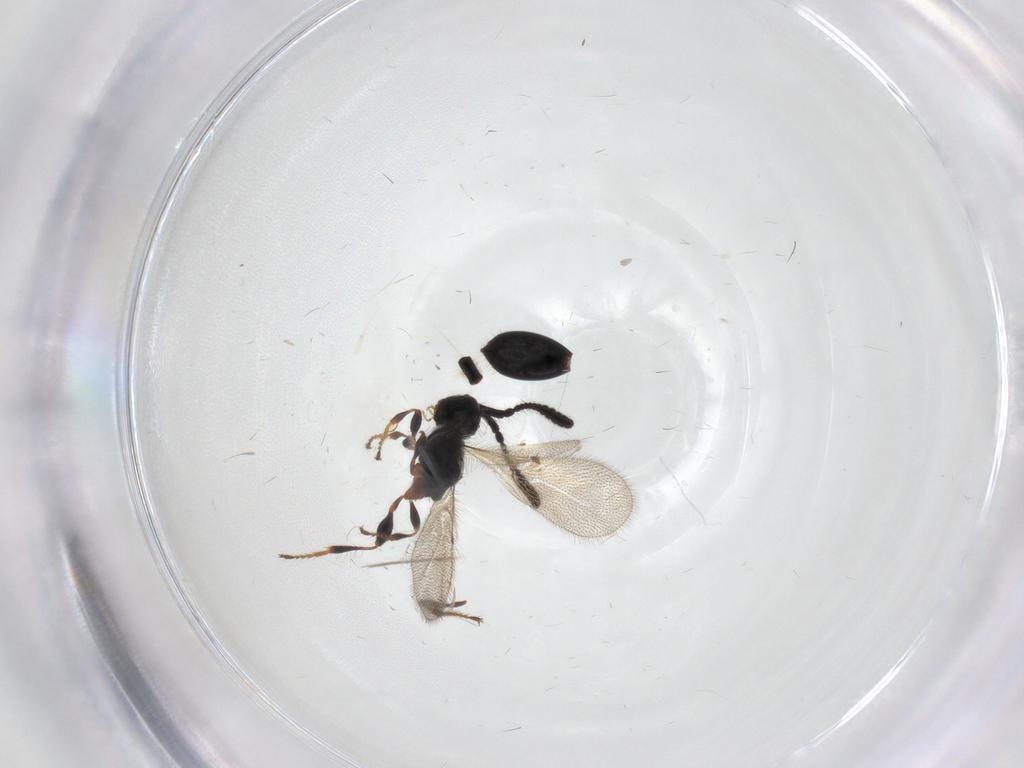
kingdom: Animalia
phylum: Arthropoda
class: Insecta
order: Hymenoptera
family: Diapriidae
